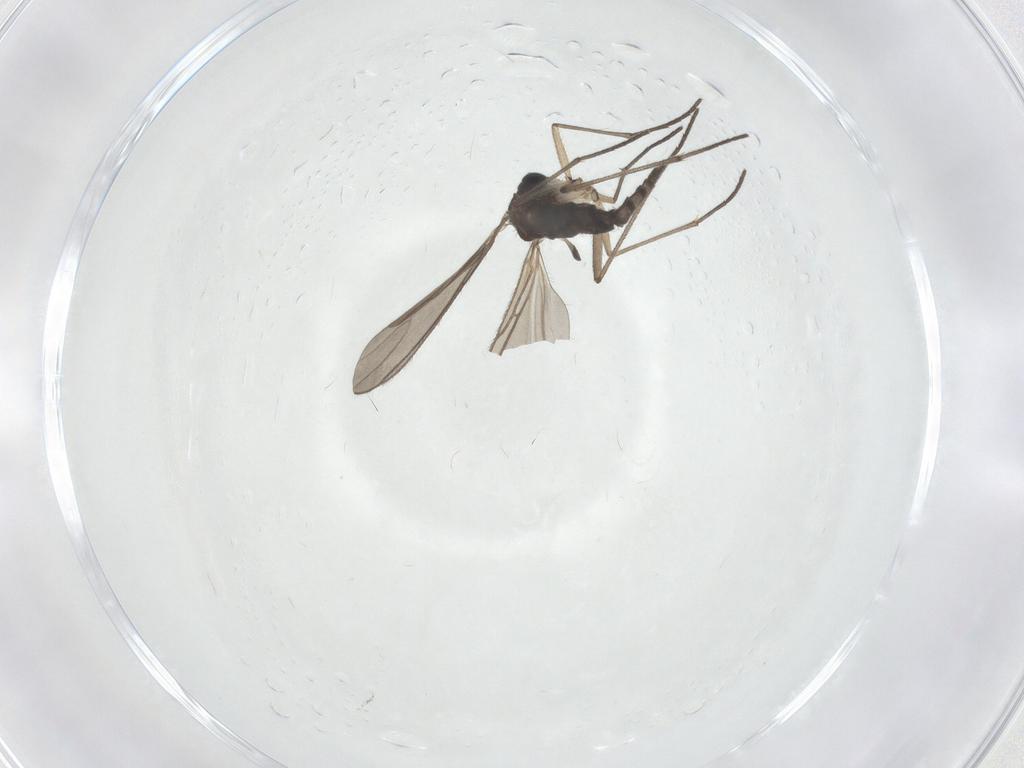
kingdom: Animalia
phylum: Arthropoda
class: Insecta
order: Diptera
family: Sciaridae
